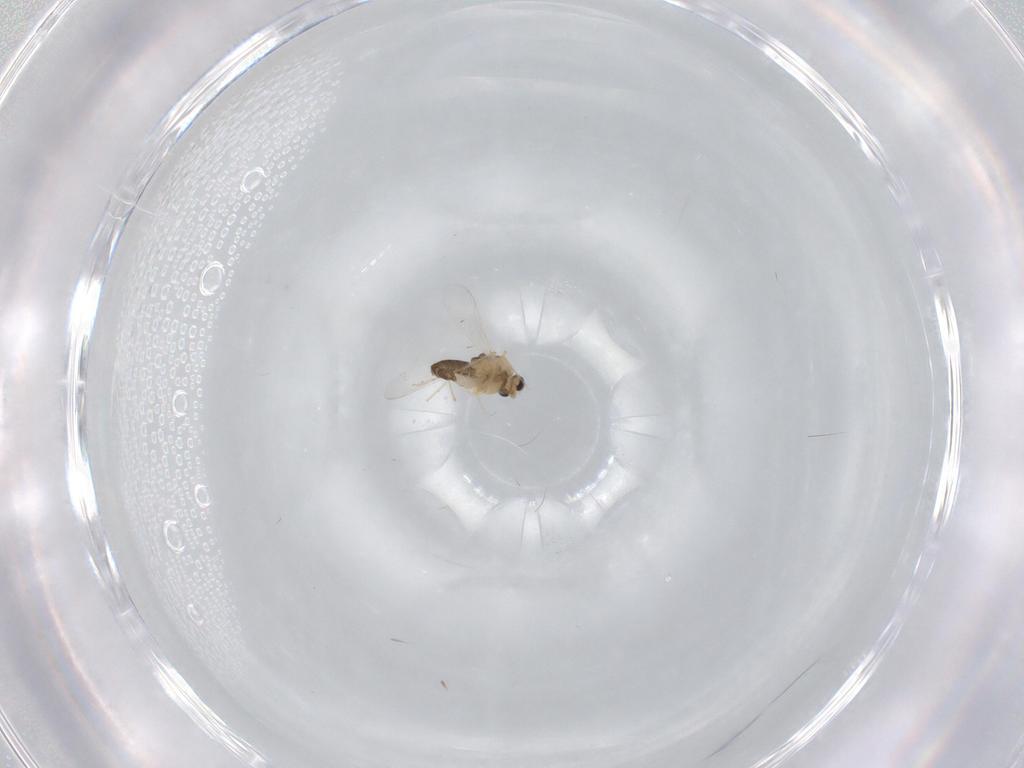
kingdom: Animalia
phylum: Arthropoda
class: Insecta
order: Diptera
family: Chironomidae
